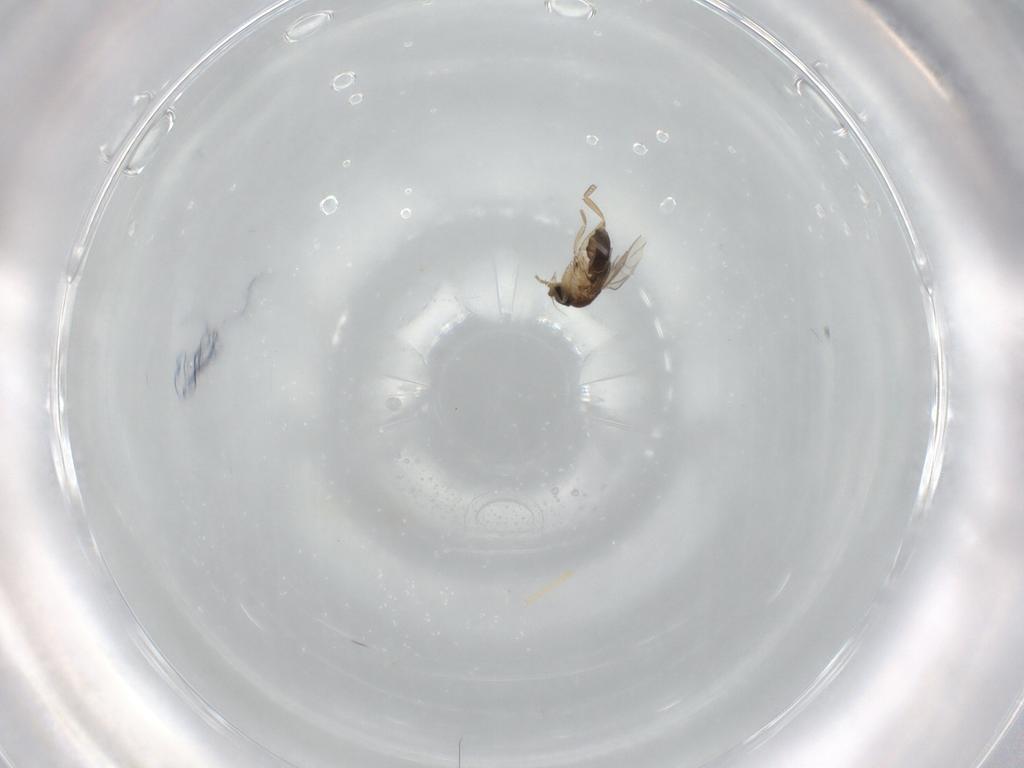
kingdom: Animalia
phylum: Arthropoda
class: Insecta
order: Diptera
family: Phoridae
